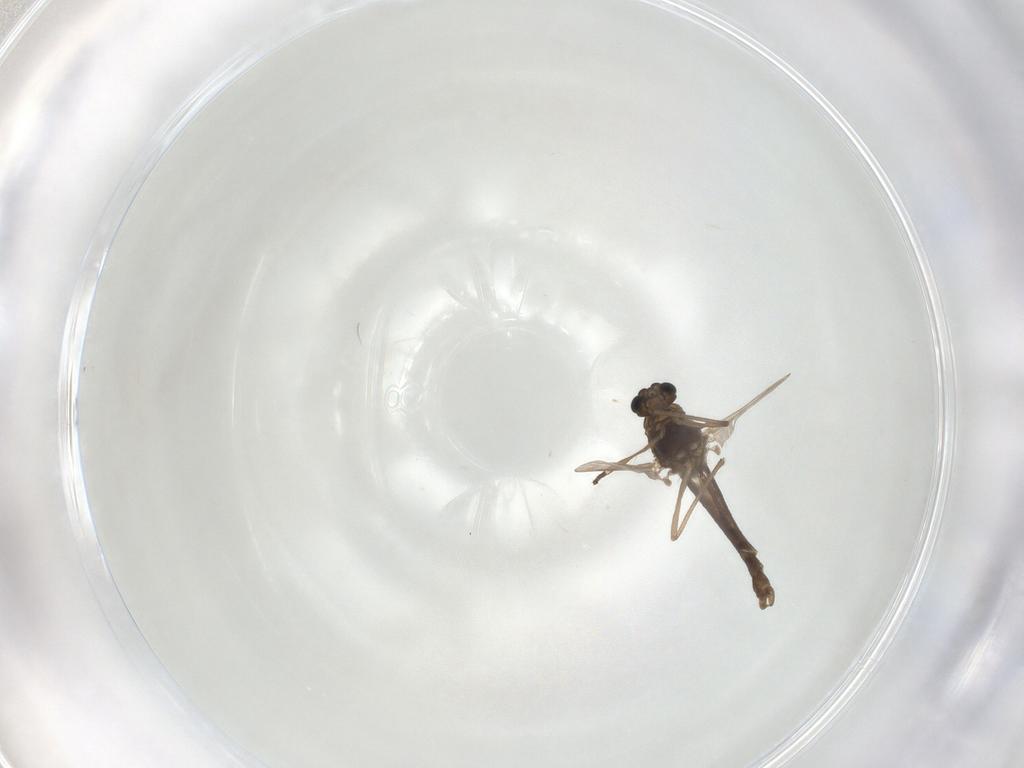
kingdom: Animalia
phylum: Arthropoda
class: Insecta
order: Diptera
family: Chironomidae
